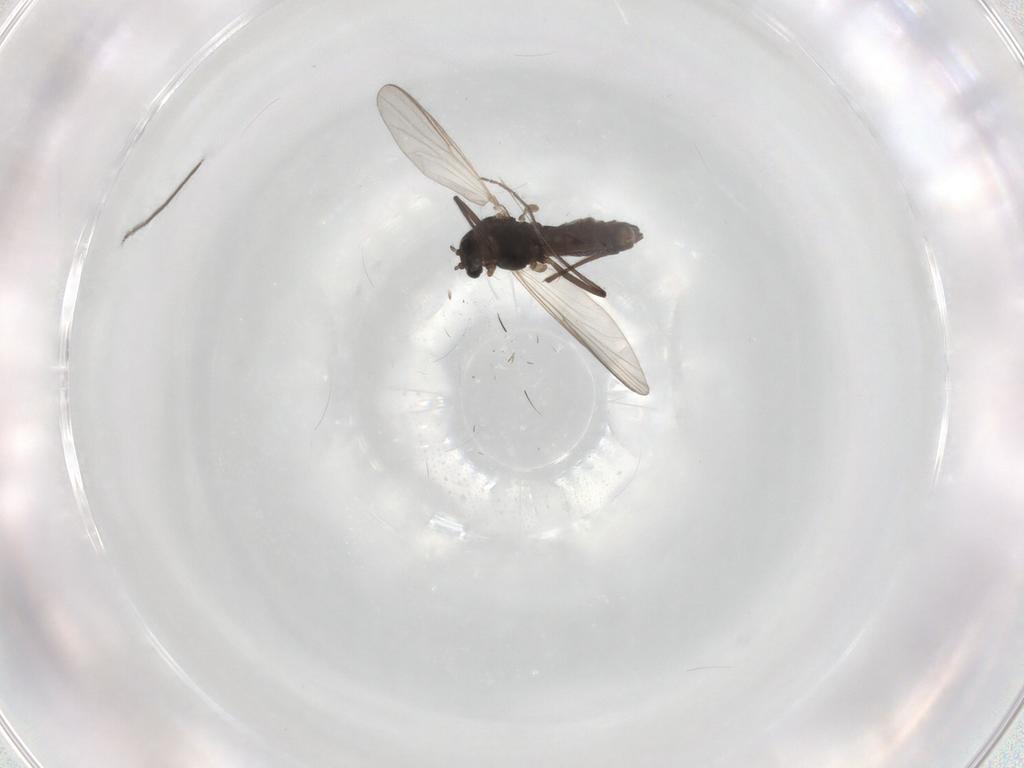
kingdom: Animalia
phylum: Arthropoda
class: Insecta
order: Diptera
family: Chironomidae
